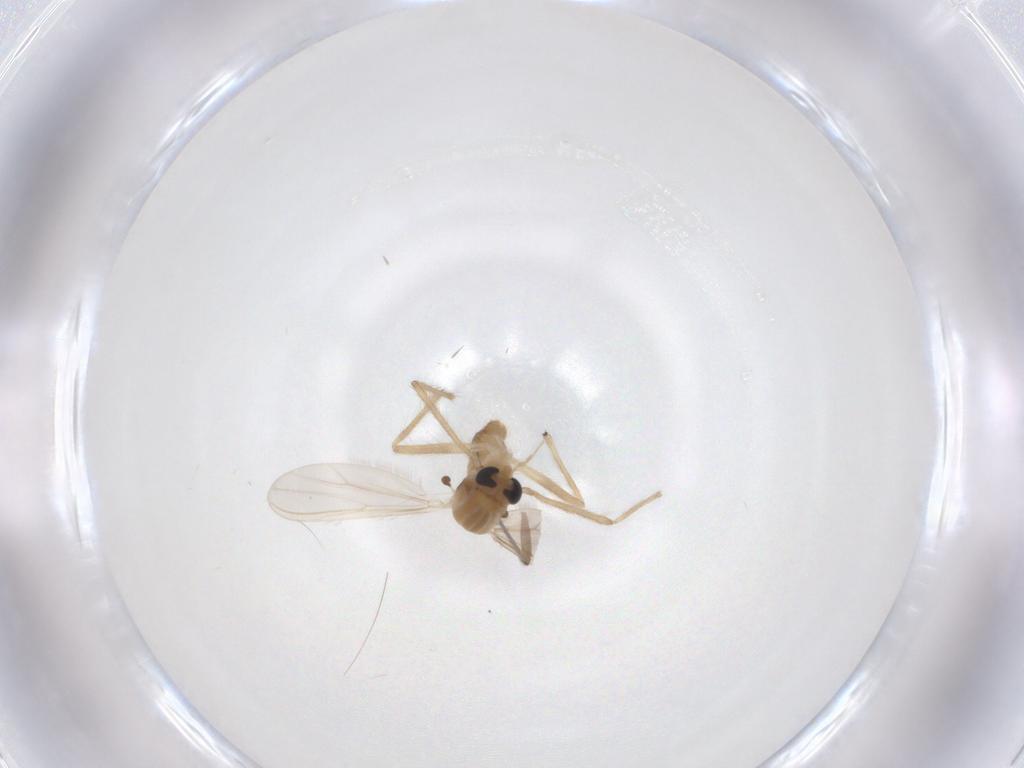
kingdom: Animalia
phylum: Arthropoda
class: Insecta
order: Diptera
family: Chironomidae
